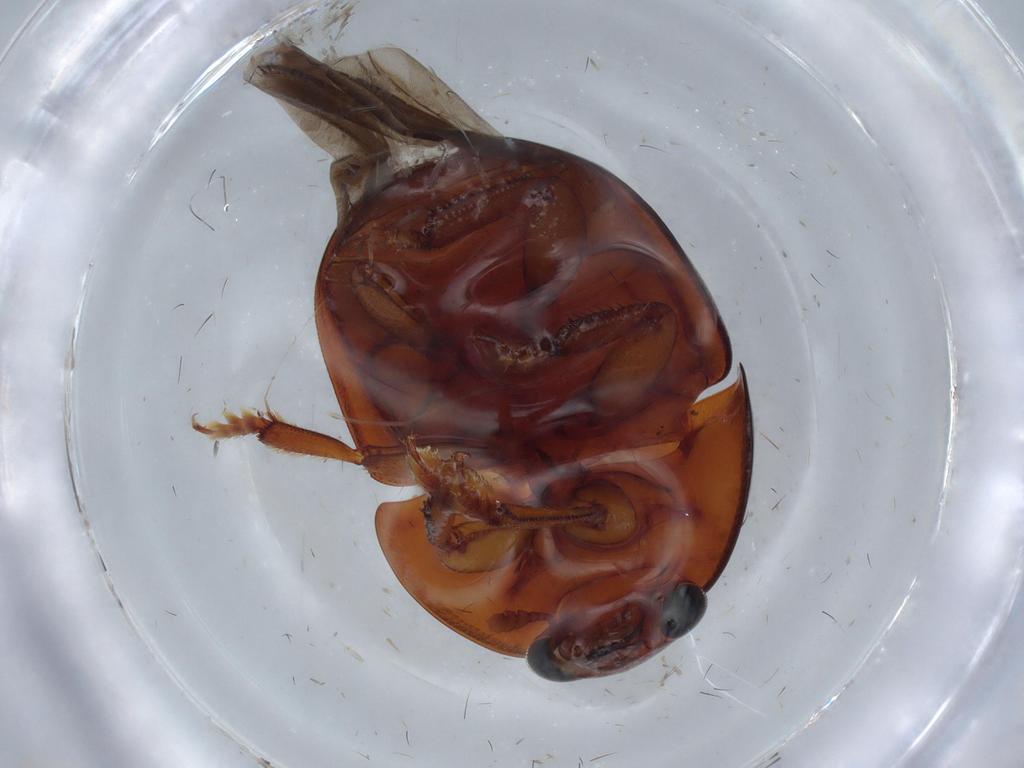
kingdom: Animalia
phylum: Arthropoda
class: Insecta
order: Coleoptera
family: Nitidulidae
